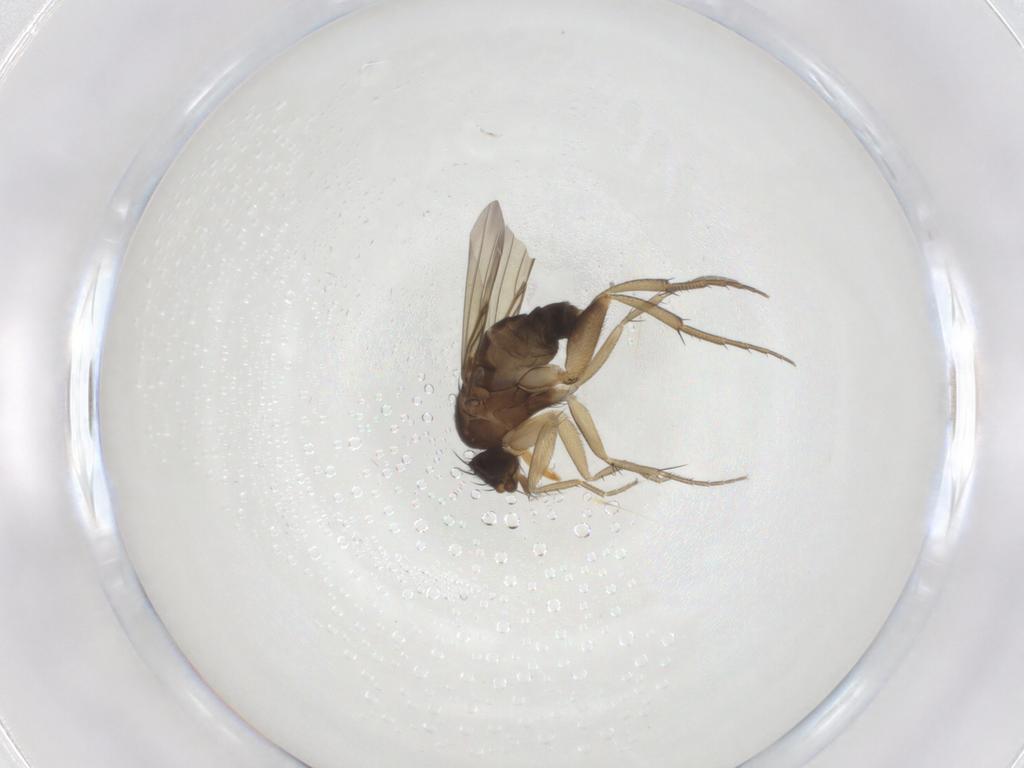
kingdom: Animalia
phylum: Arthropoda
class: Insecta
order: Diptera
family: Phoridae
